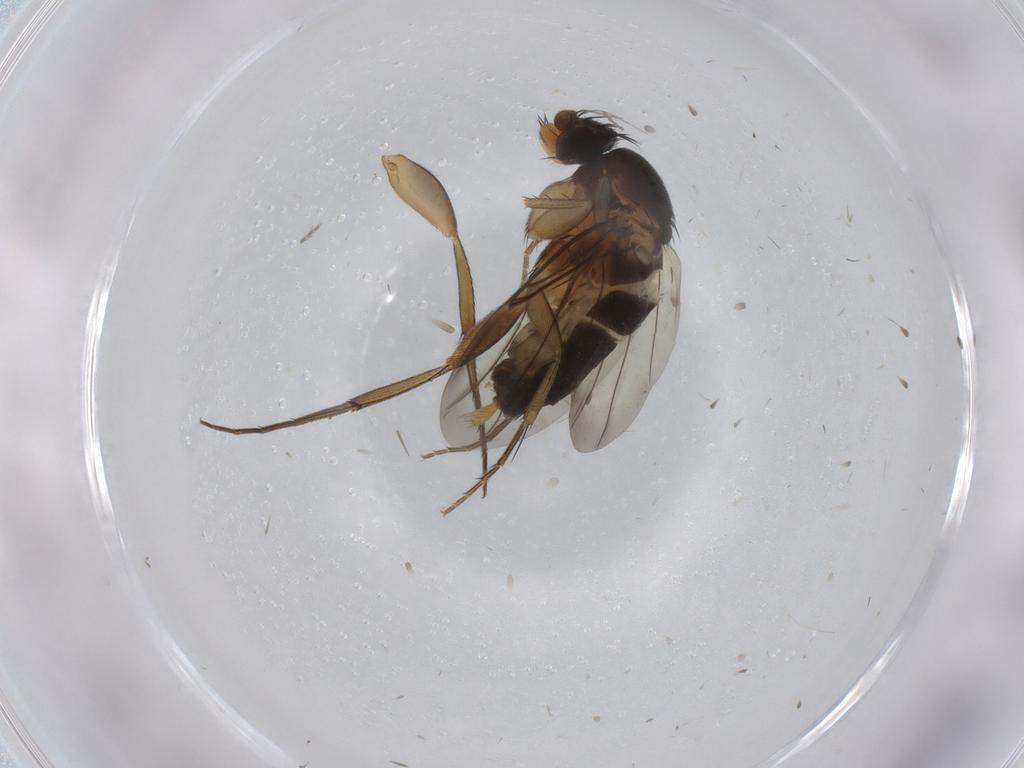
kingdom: Animalia
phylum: Arthropoda
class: Insecta
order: Diptera
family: Phoridae
